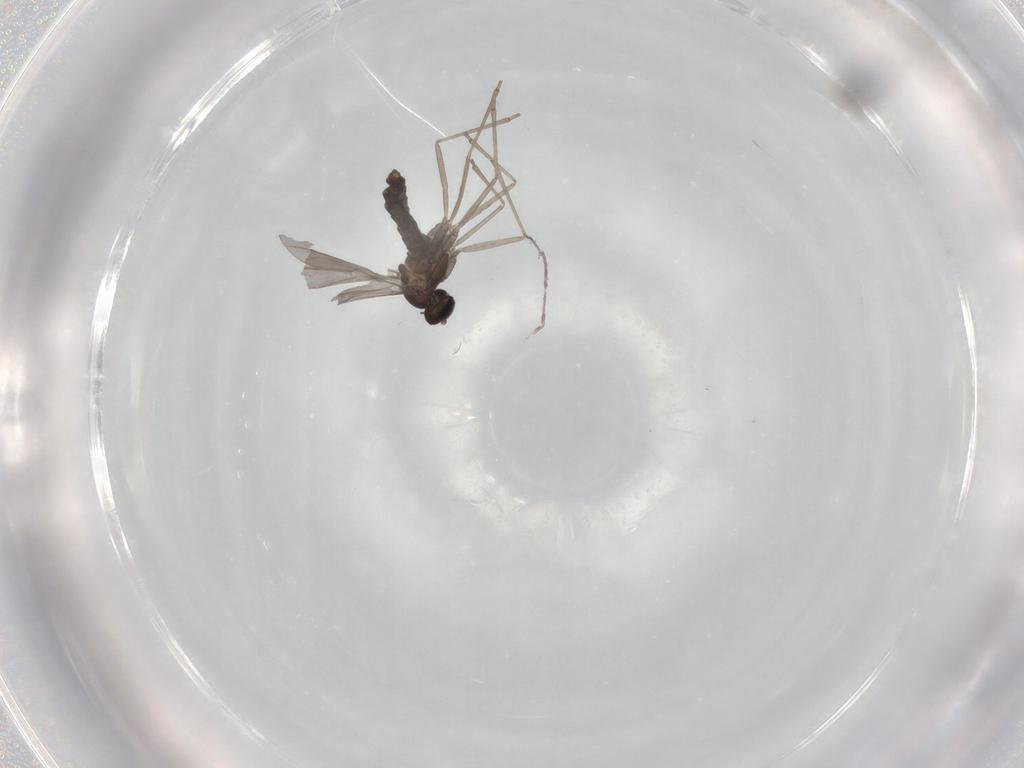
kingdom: Animalia
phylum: Arthropoda
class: Insecta
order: Diptera
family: Cecidomyiidae
